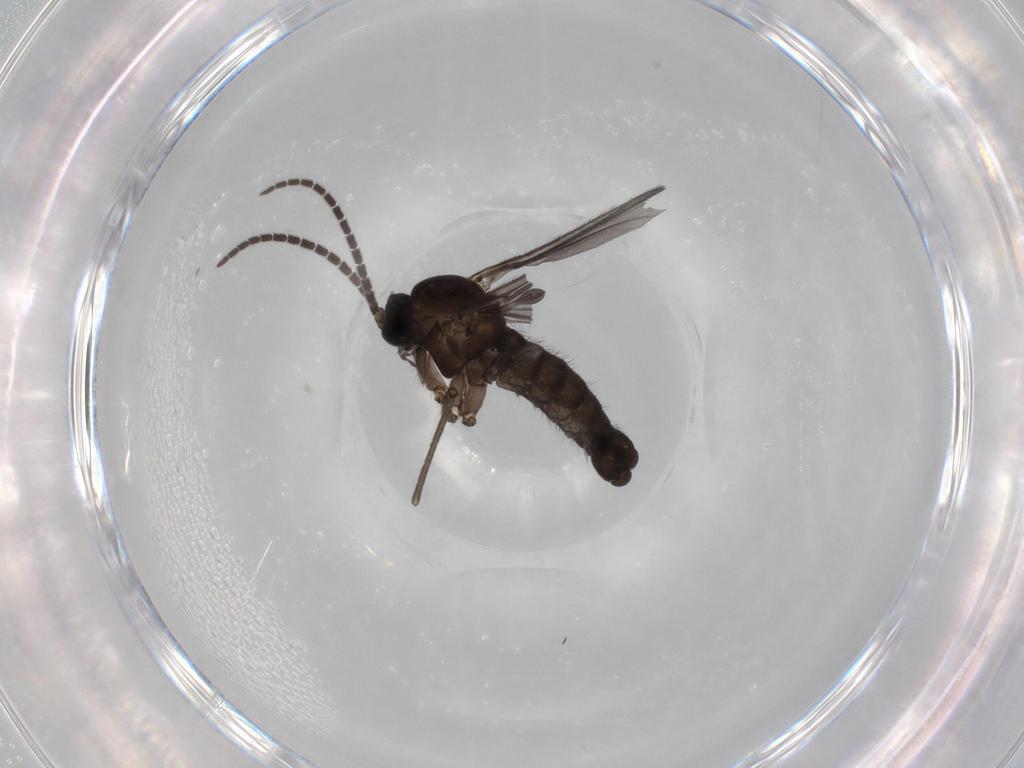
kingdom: Animalia
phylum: Arthropoda
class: Insecta
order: Diptera
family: Sciaridae
